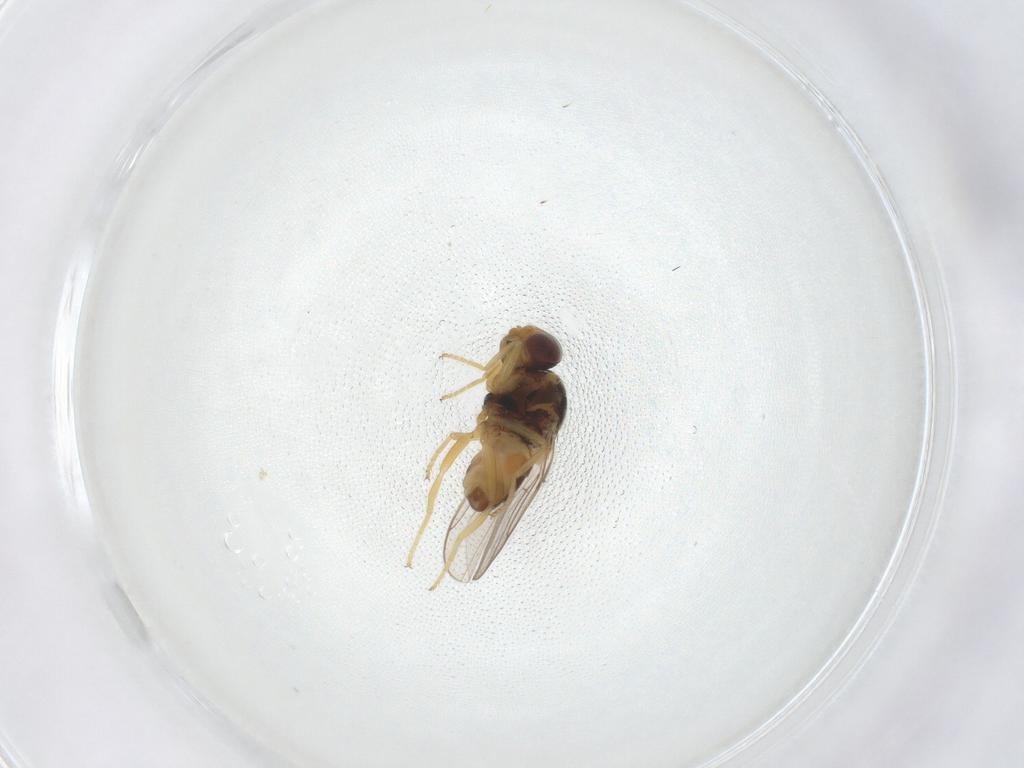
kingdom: Animalia
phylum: Arthropoda
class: Insecta
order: Diptera
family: Chloropidae
